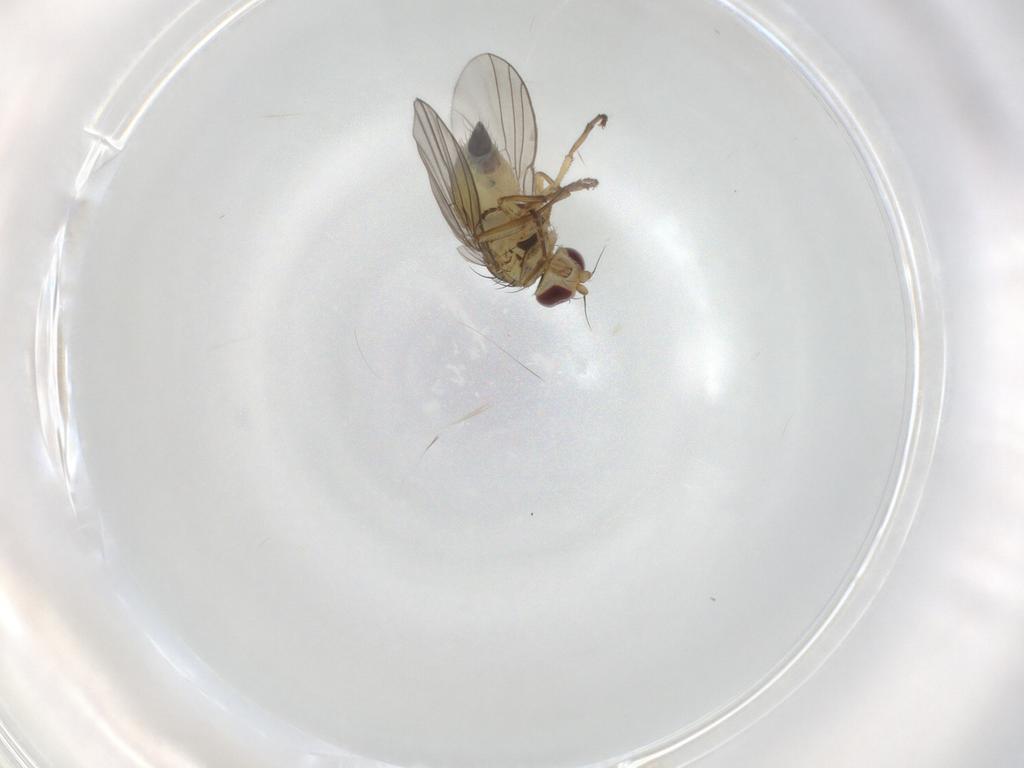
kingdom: Animalia
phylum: Arthropoda
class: Insecta
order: Diptera
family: Agromyzidae
